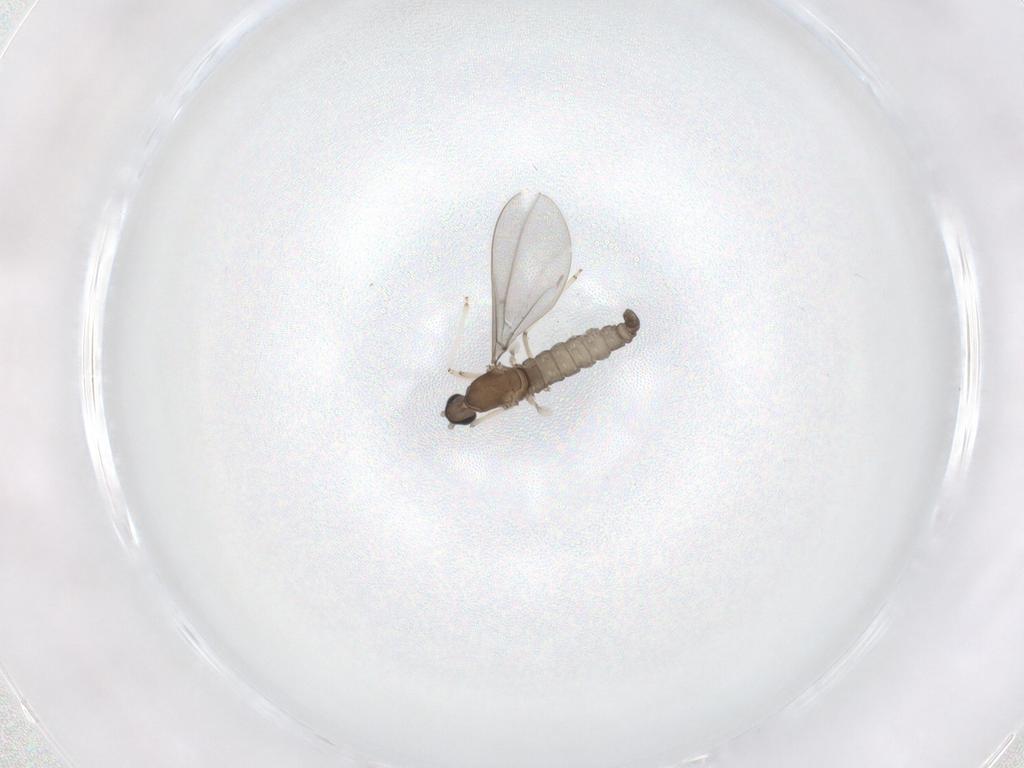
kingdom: Animalia
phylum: Arthropoda
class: Insecta
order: Diptera
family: Cecidomyiidae
